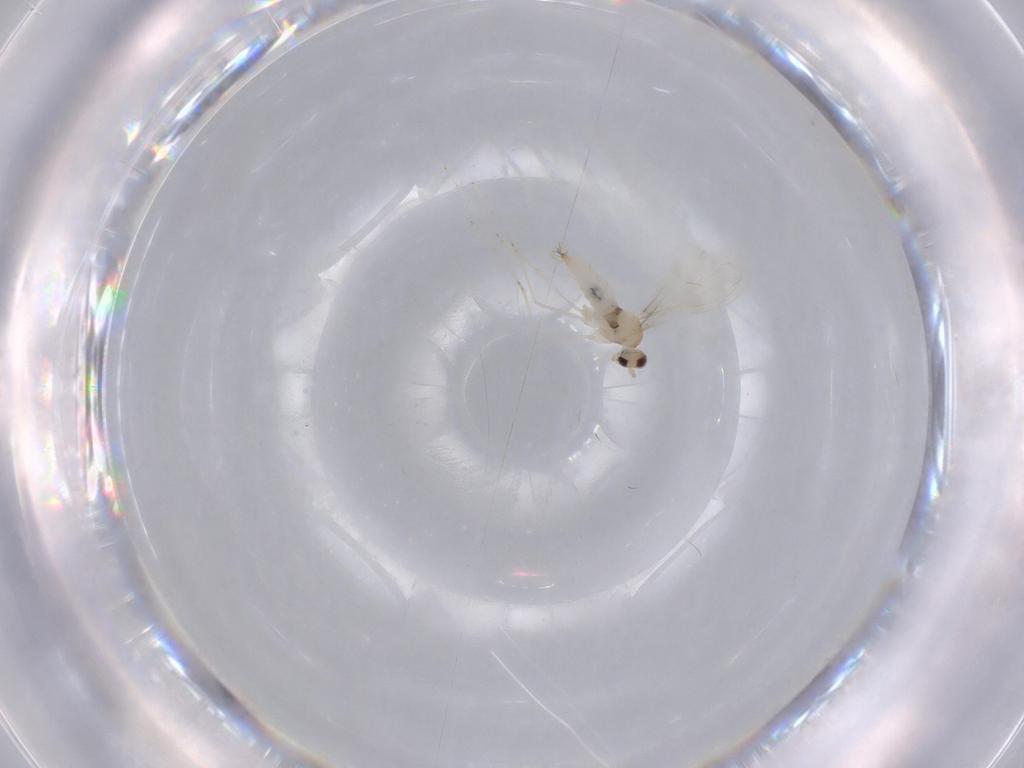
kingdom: Animalia
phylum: Arthropoda
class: Insecta
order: Diptera
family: Cecidomyiidae
